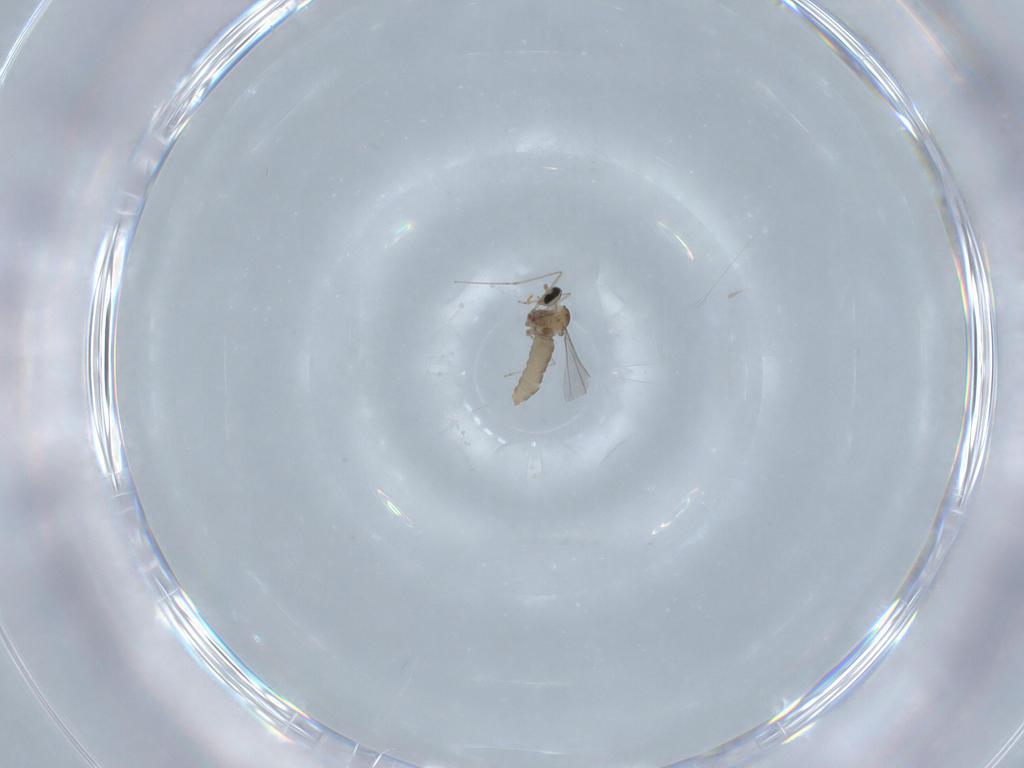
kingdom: Animalia
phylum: Arthropoda
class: Insecta
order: Diptera
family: Cecidomyiidae
